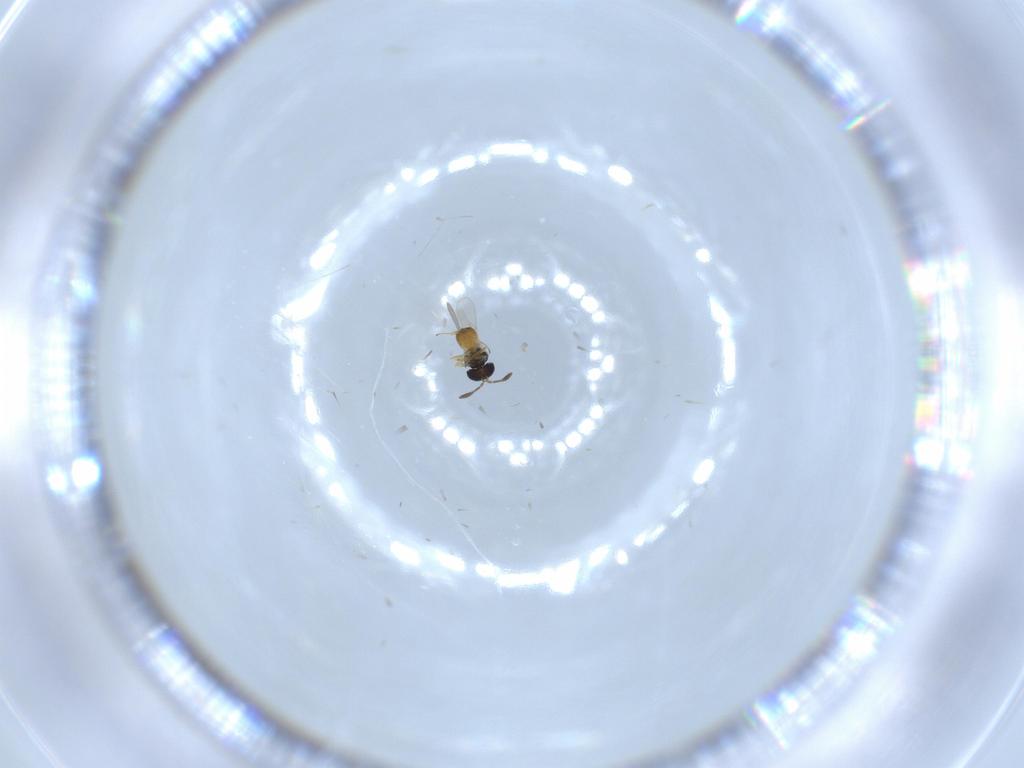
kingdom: Animalia
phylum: Arthropoda
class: Insecta
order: Hymenoptera
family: Scelionidae
